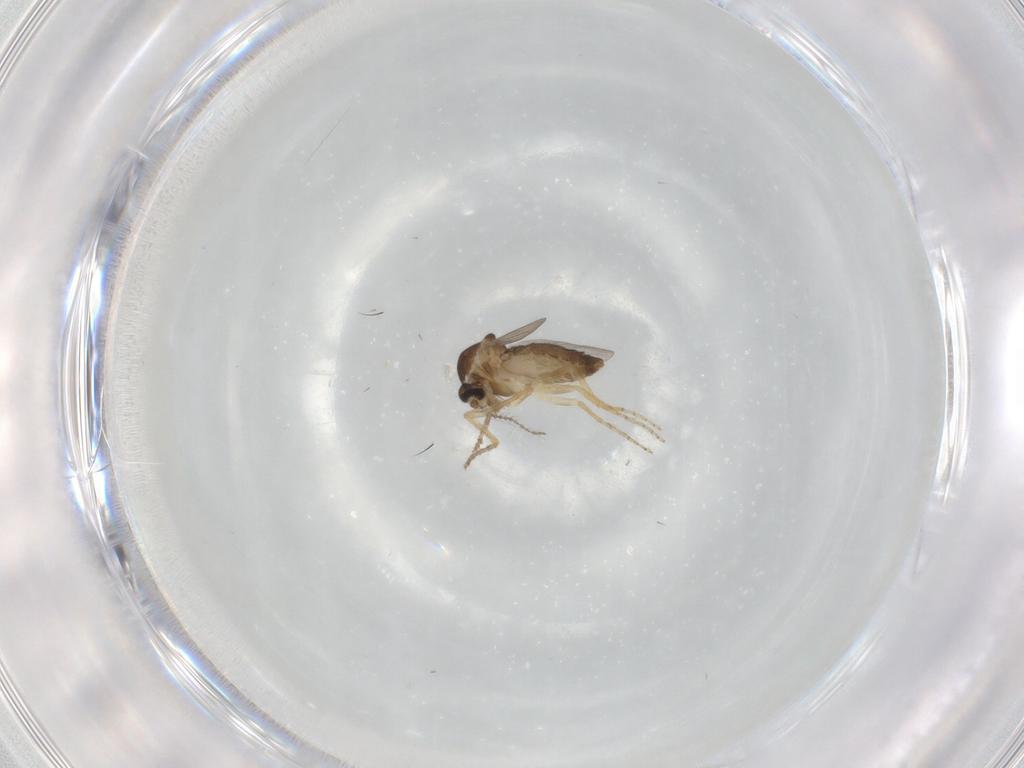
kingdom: Animalia
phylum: Arthropoda
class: Insecta
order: Diptera
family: Ceratopogonidae
